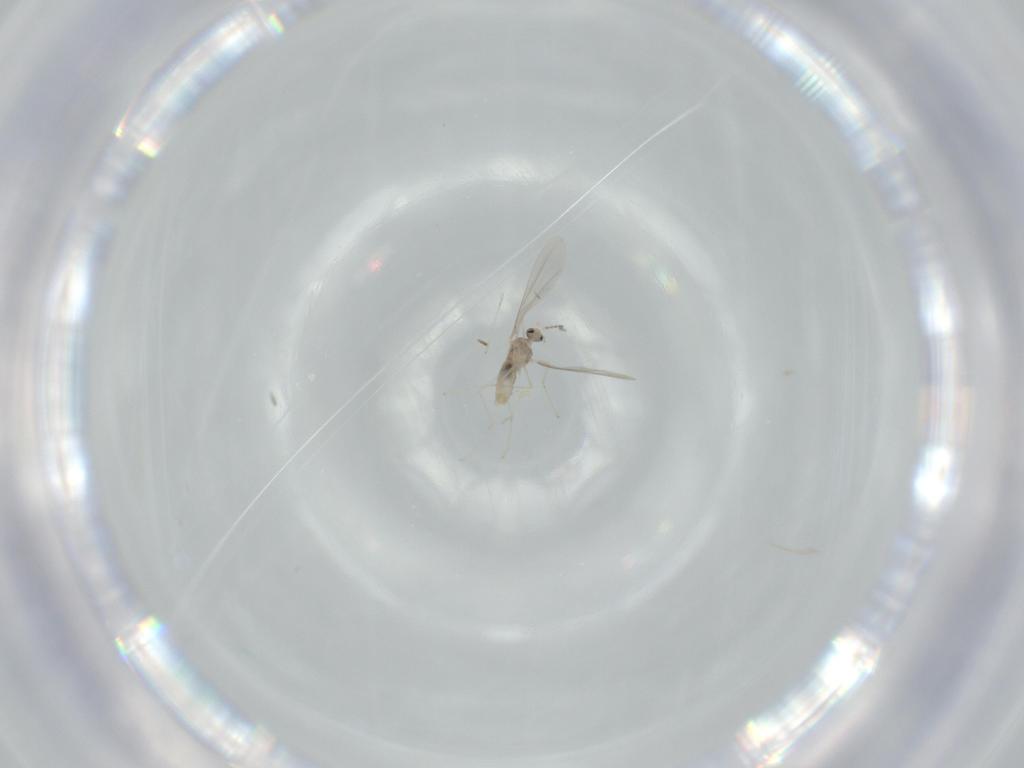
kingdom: Animalia
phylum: Arthropoda
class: Insecta
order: Diptera
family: Cecidomyiidae
